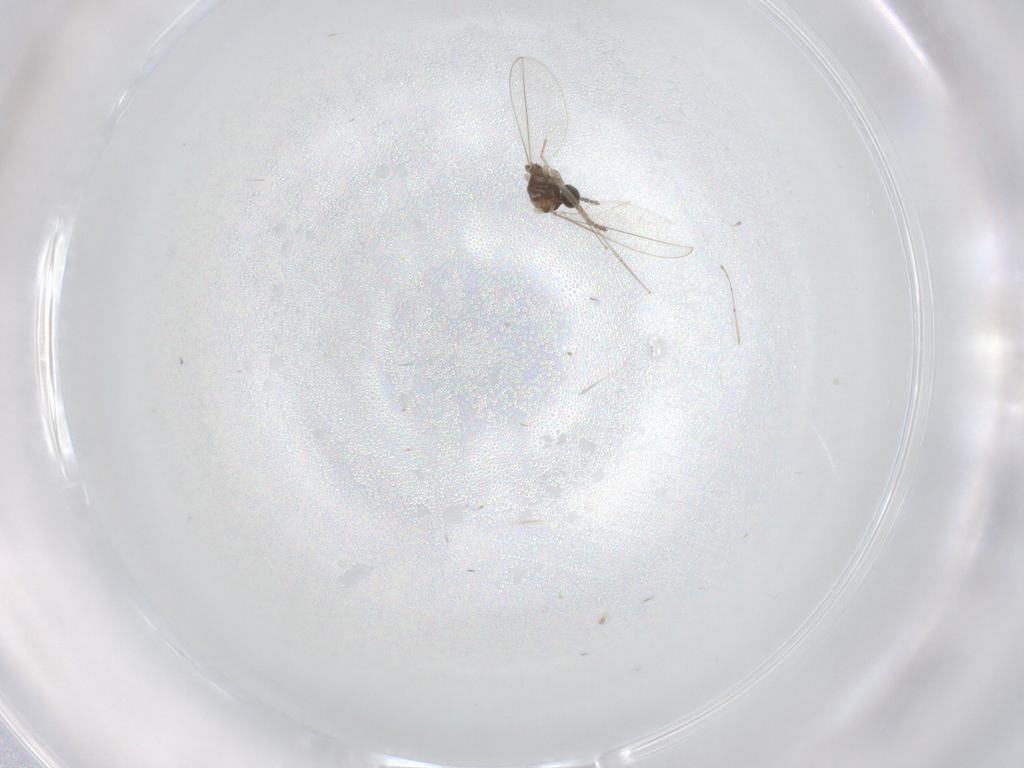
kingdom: Animalia
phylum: Arthropoda
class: Insecta
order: Diptera
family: Cecidomyiidae
